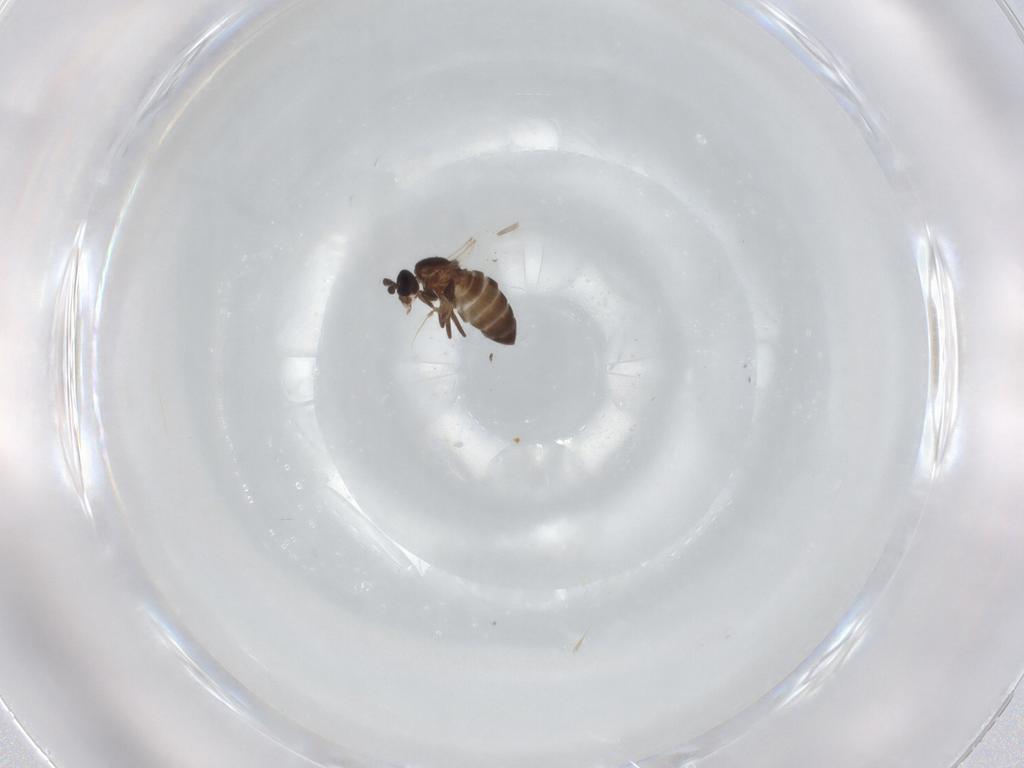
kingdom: Animalia
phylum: Arthropoda
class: Insecta
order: Diptera
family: Scatopsidae
